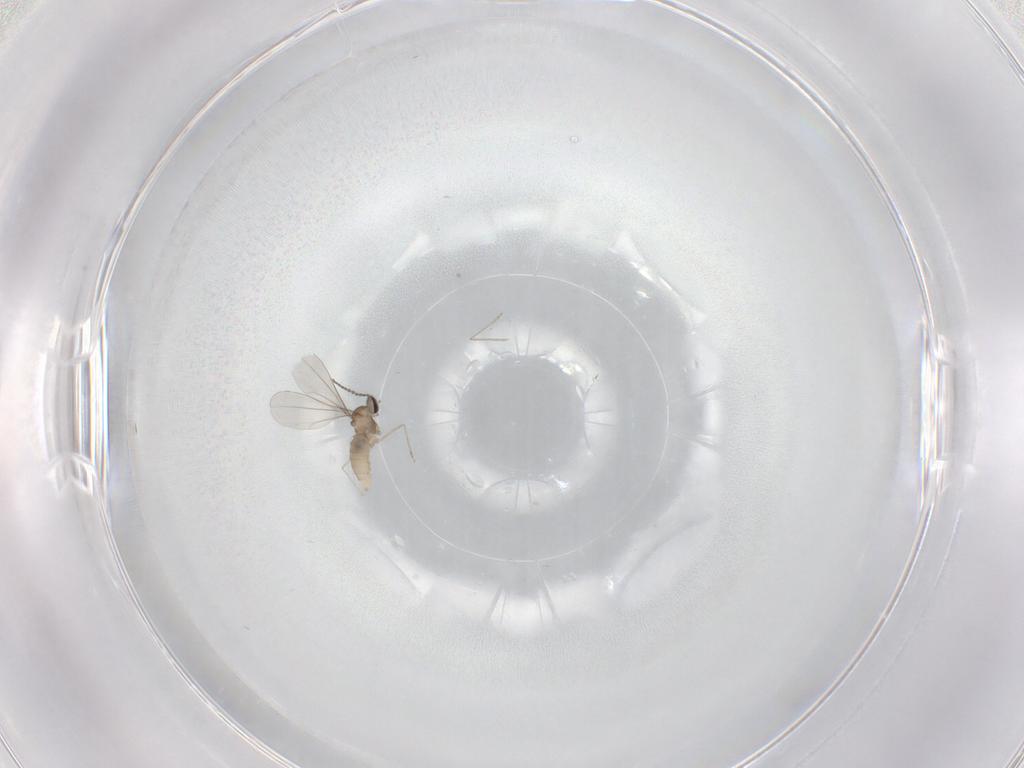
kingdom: Animalia
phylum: Arthropoda
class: Insecta
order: Diptera
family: Cecidomyiidae
